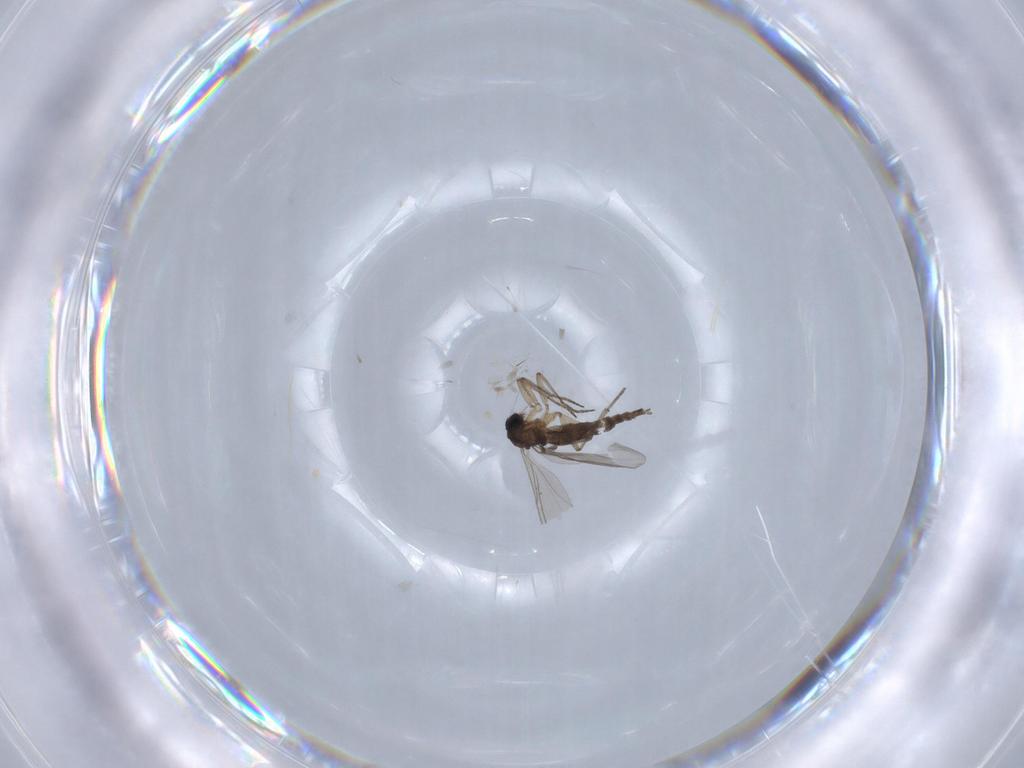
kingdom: Animalia
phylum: Arthropoda
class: Insecta
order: Diptera
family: Sciaridae
